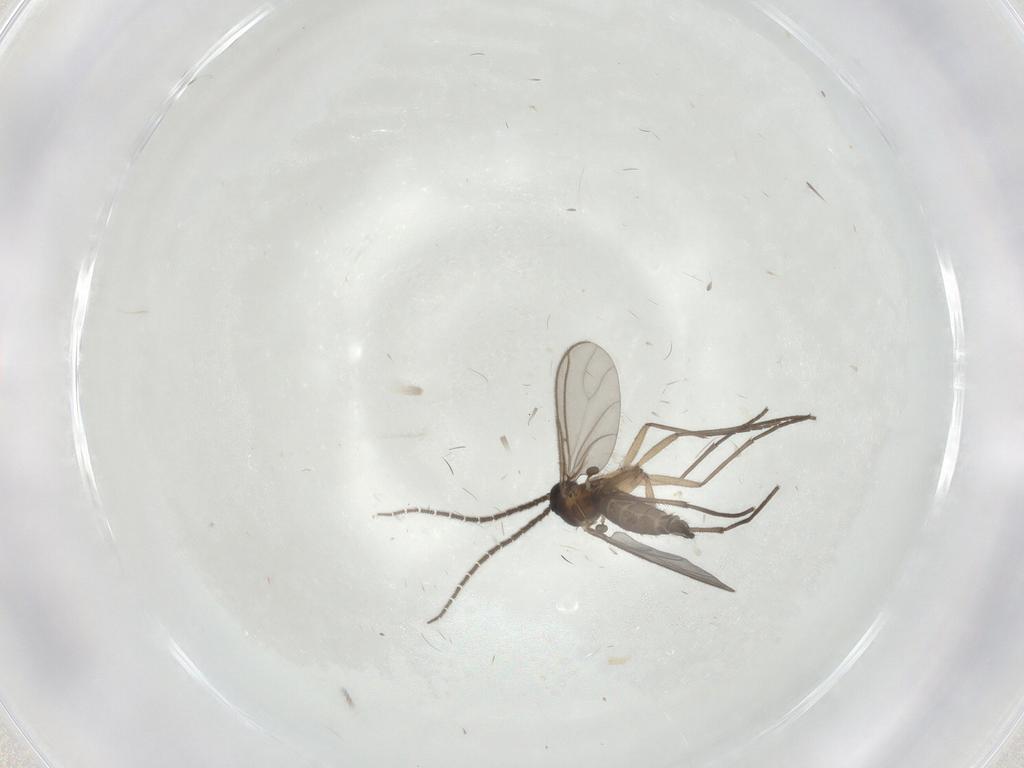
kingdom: Animalia
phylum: Arthropoda
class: Insecta
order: Diptera
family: Sciaridae
